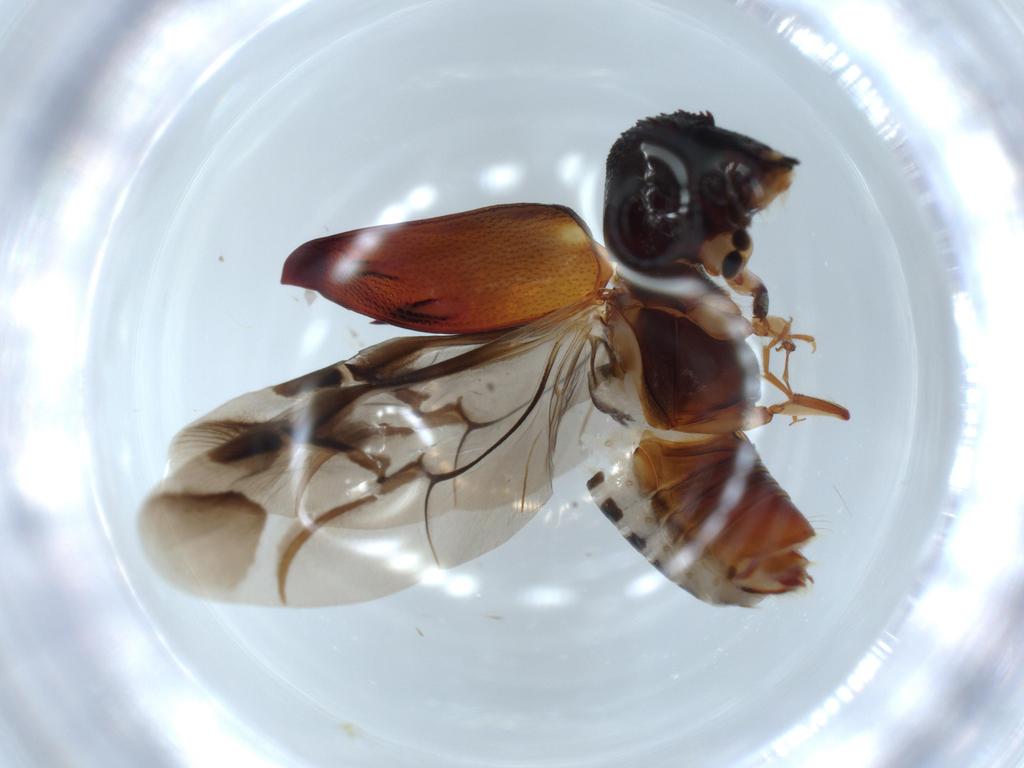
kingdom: Animalia
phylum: Arthropoda
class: Insecta
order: Coleoptera
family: Bostrichidae
